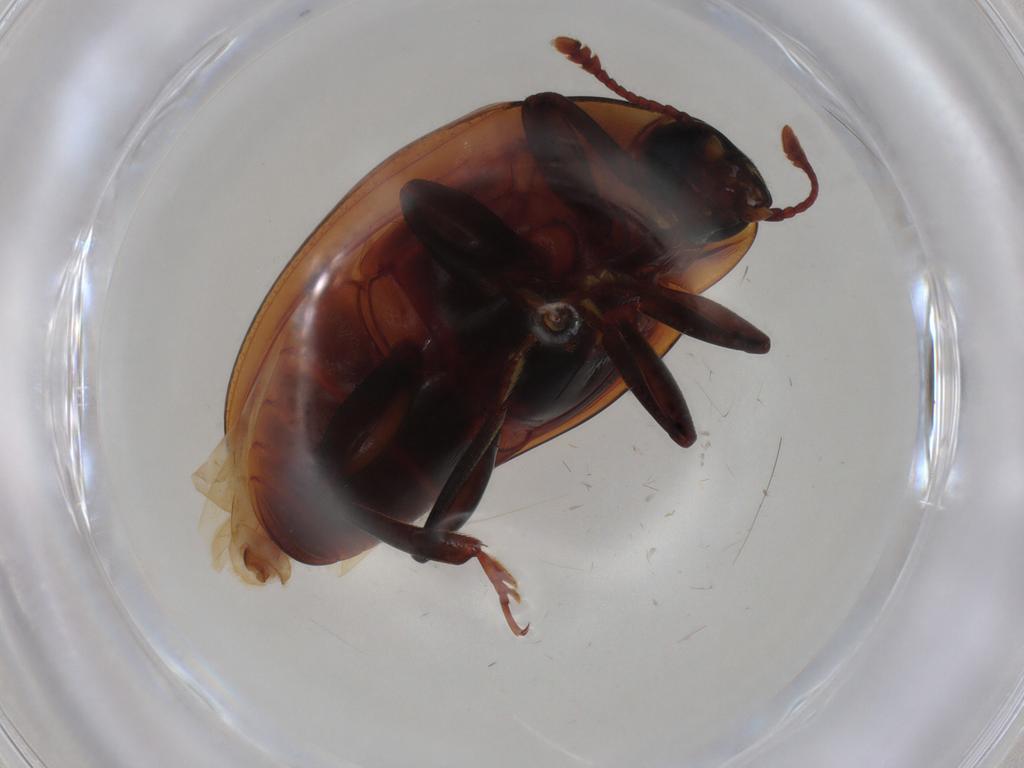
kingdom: Animalia
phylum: Arthropoda
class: Insecta
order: Coleoptera
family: Zopheridae
